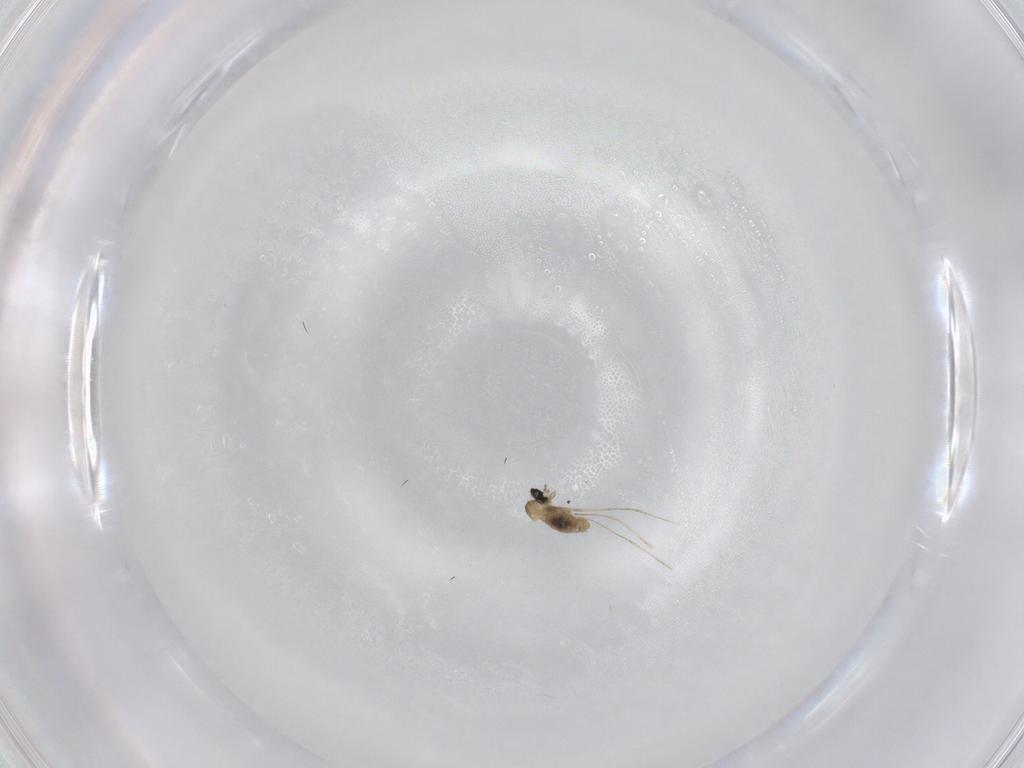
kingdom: Animalia
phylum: Arthropoda
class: Insecta
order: Diptera
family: Cecidomyiidae
